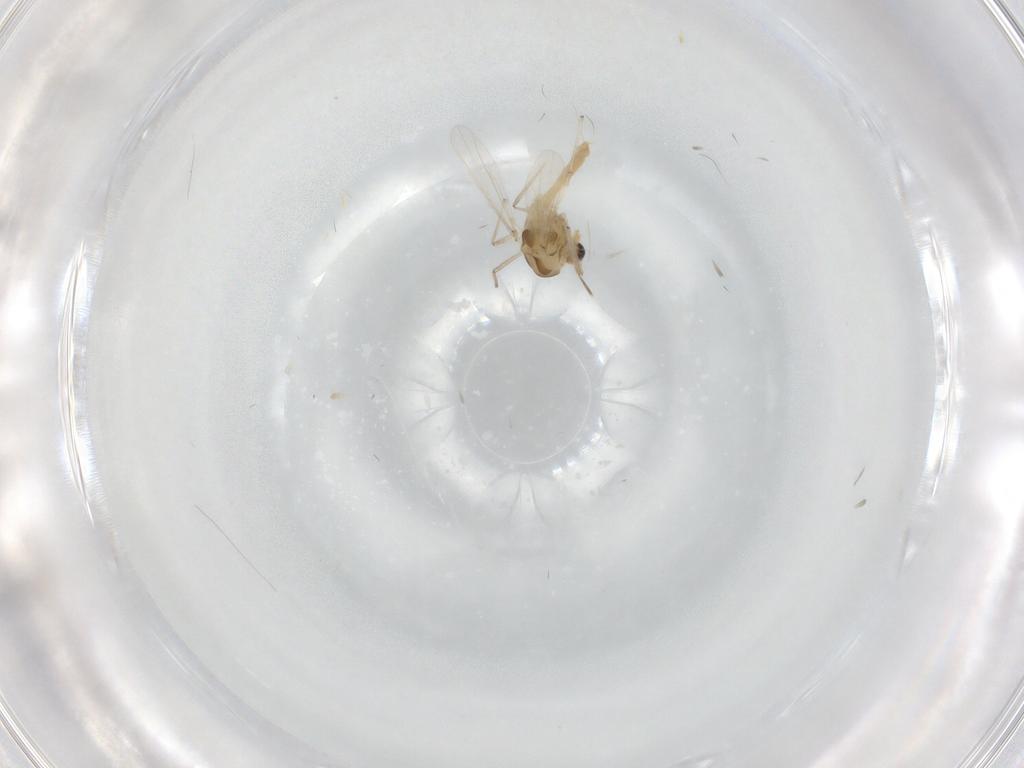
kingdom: Animalia
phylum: Arthropoda
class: Insecta
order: Diptera
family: Chironomidae
